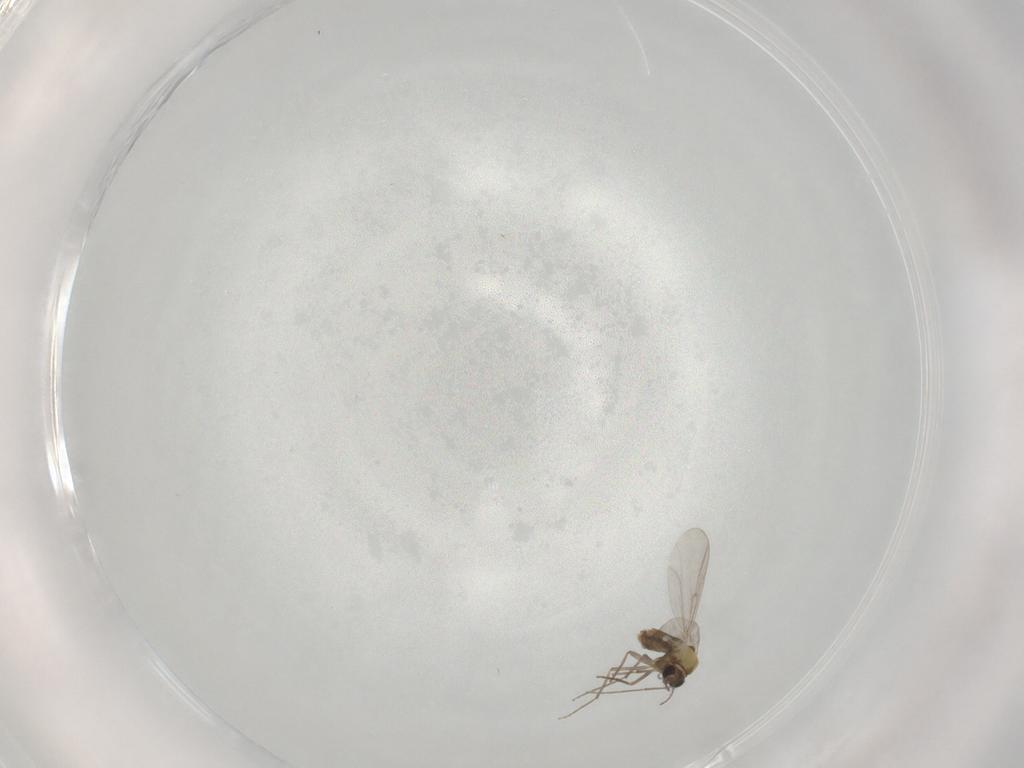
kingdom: Animalia
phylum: Arthropoda
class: Insecta
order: Diptera
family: Chironomidae
